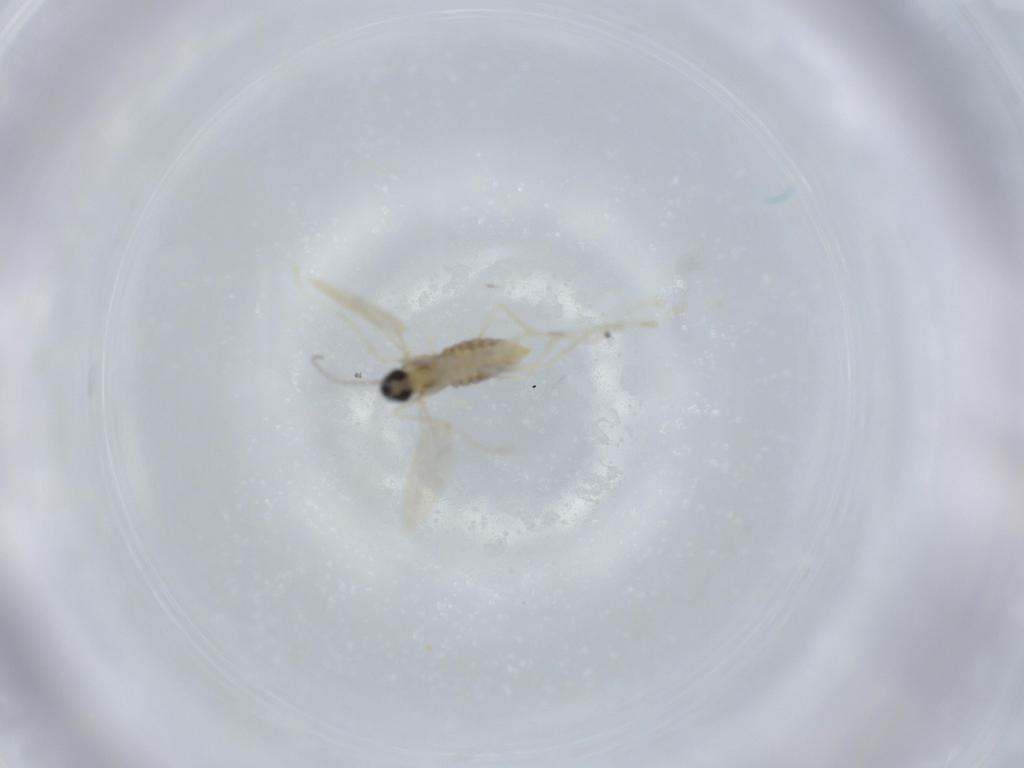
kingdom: Animalia
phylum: Arthropoda
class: Insecta
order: Diptera
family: Cecidomyiidae
